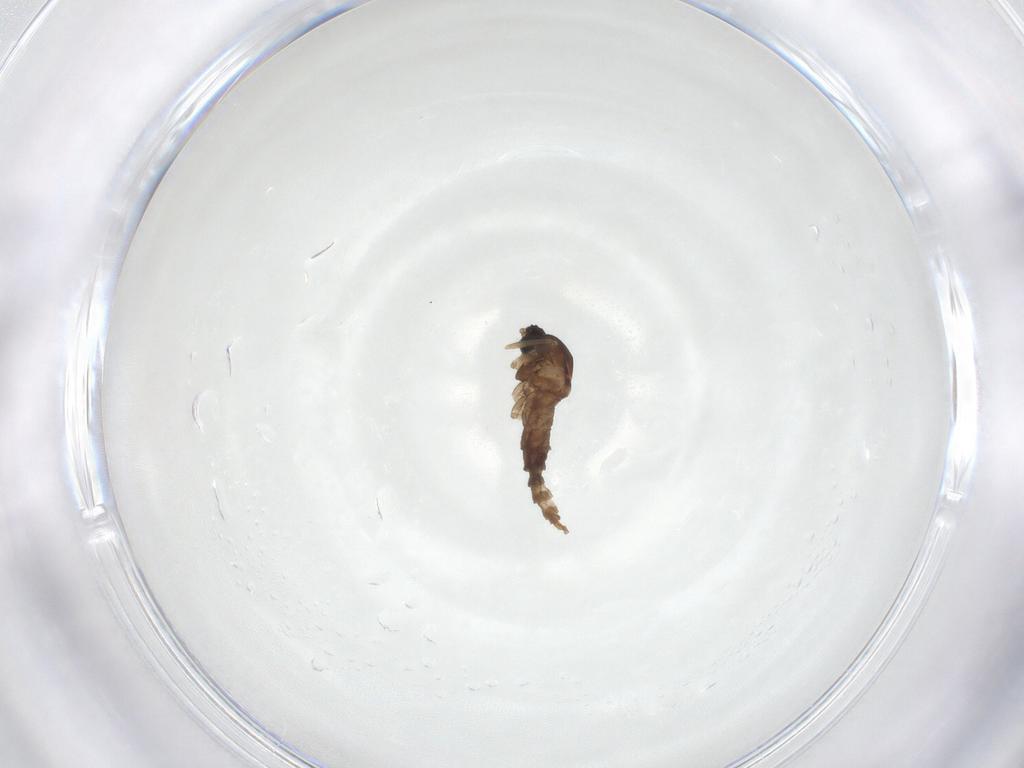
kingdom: Animalia
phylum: Arthropoda
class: Insecta
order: Diptera
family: Cecidomyiidae
